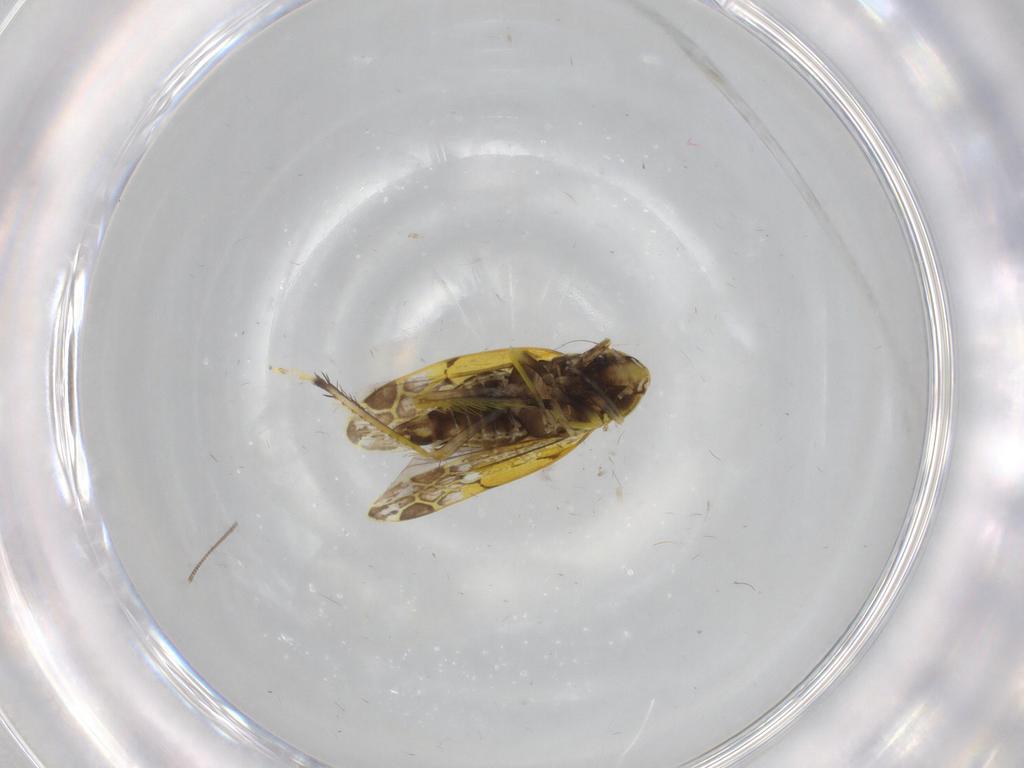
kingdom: Animalia
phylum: Arthropoda
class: Insecta
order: Hemiptera
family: Cicadellidae
